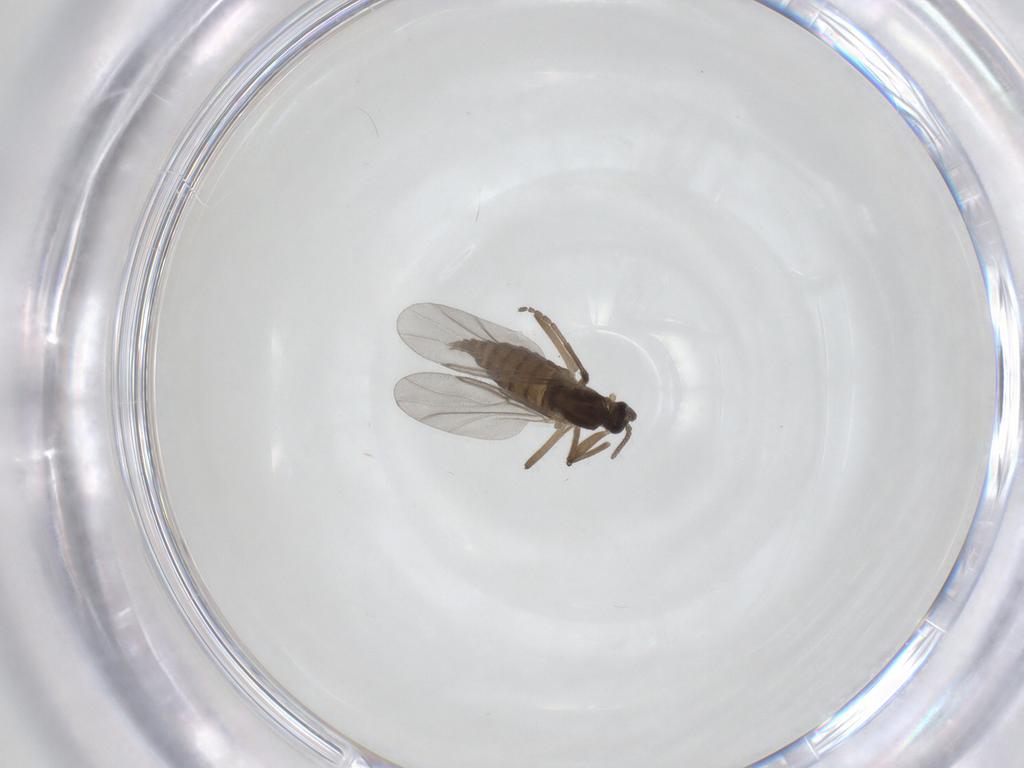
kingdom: Animalia
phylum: Arthropoda
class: Insecta
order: Diptera
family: Cecidomyiidae
